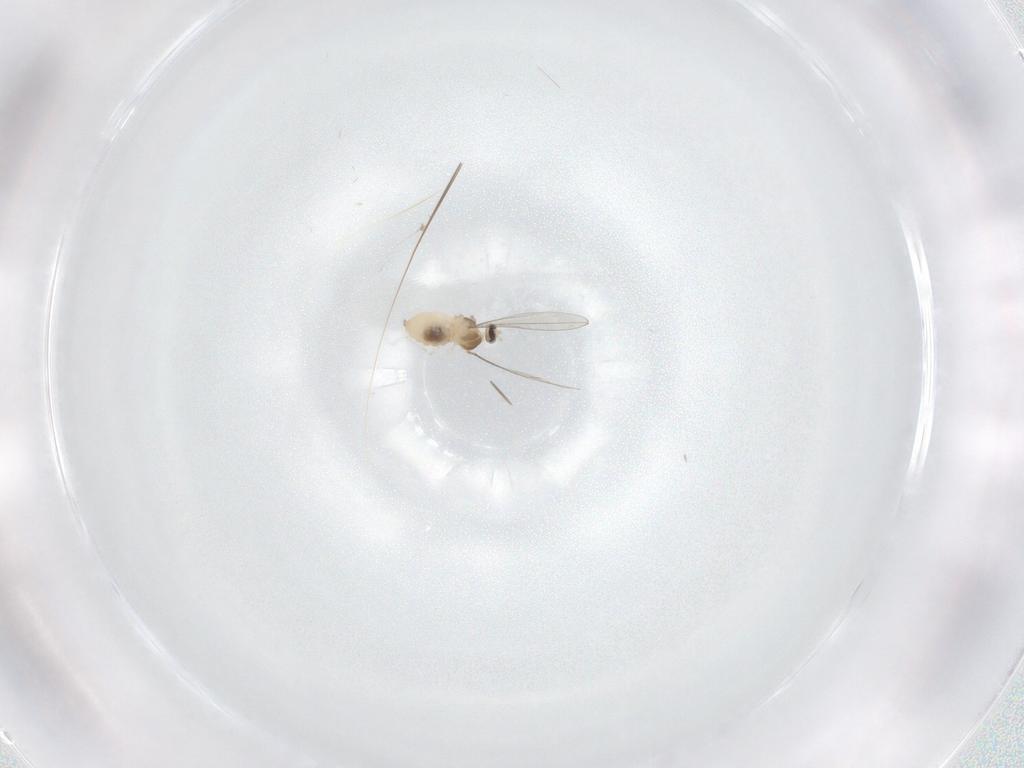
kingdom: Animalia
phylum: Arthropoda
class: Insecta
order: Diptera
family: Cecidomyiidae
